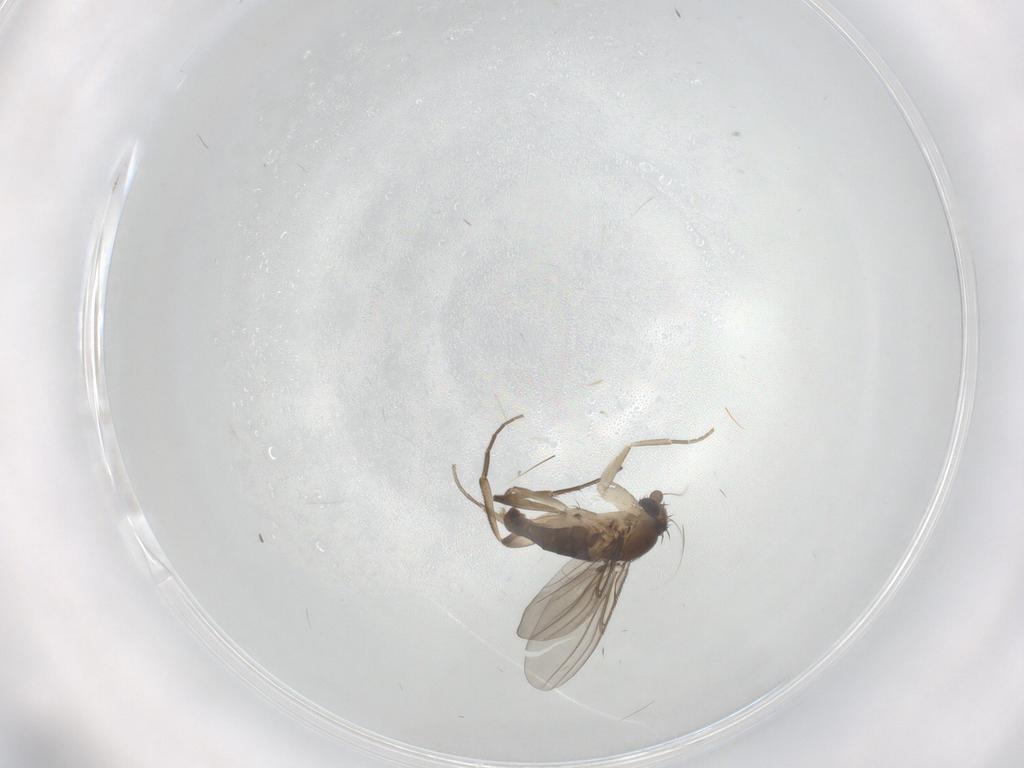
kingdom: Animalia
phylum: Arthropoda
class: Insecta
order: Diptera
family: Phoridae
